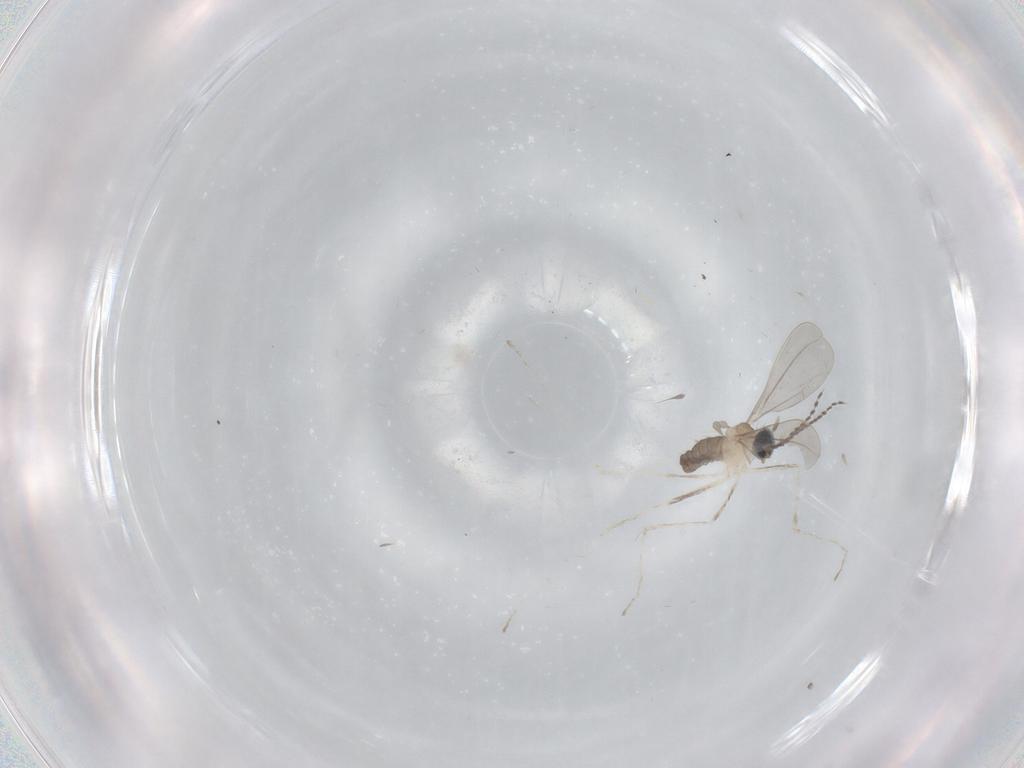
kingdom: Animalia
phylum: Arthropoda
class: Insecta
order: Diptera
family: Cecidomyiidae
